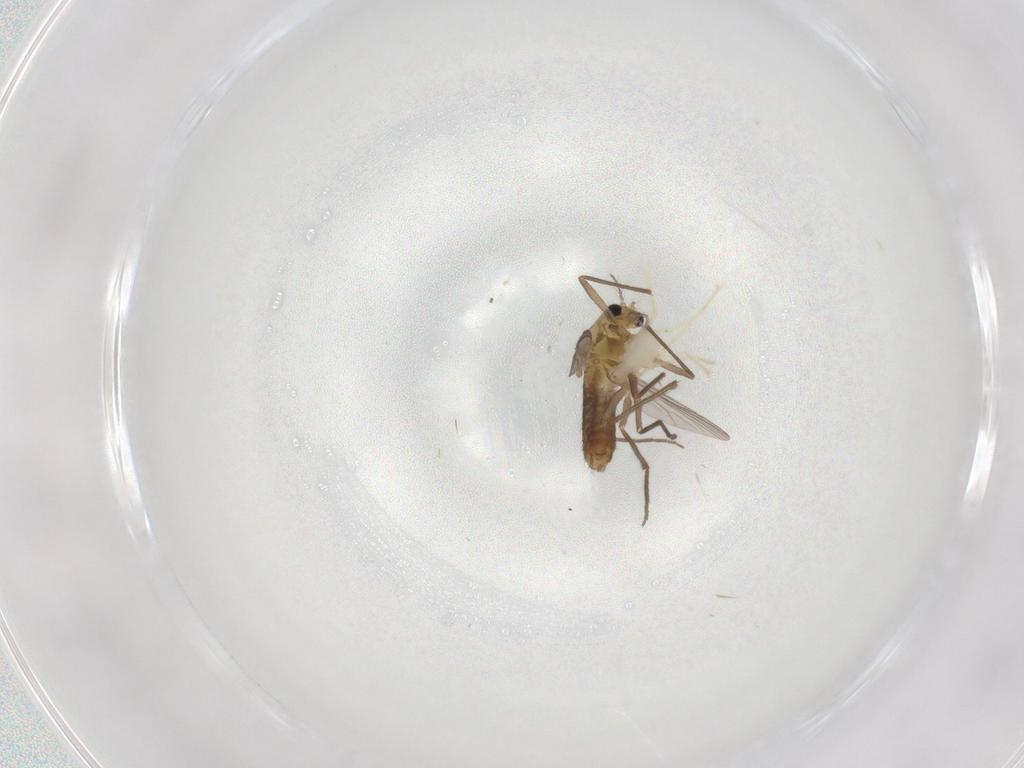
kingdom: Animalia
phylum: Arthropoda
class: Insecta
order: Diptera
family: Chironomidae
